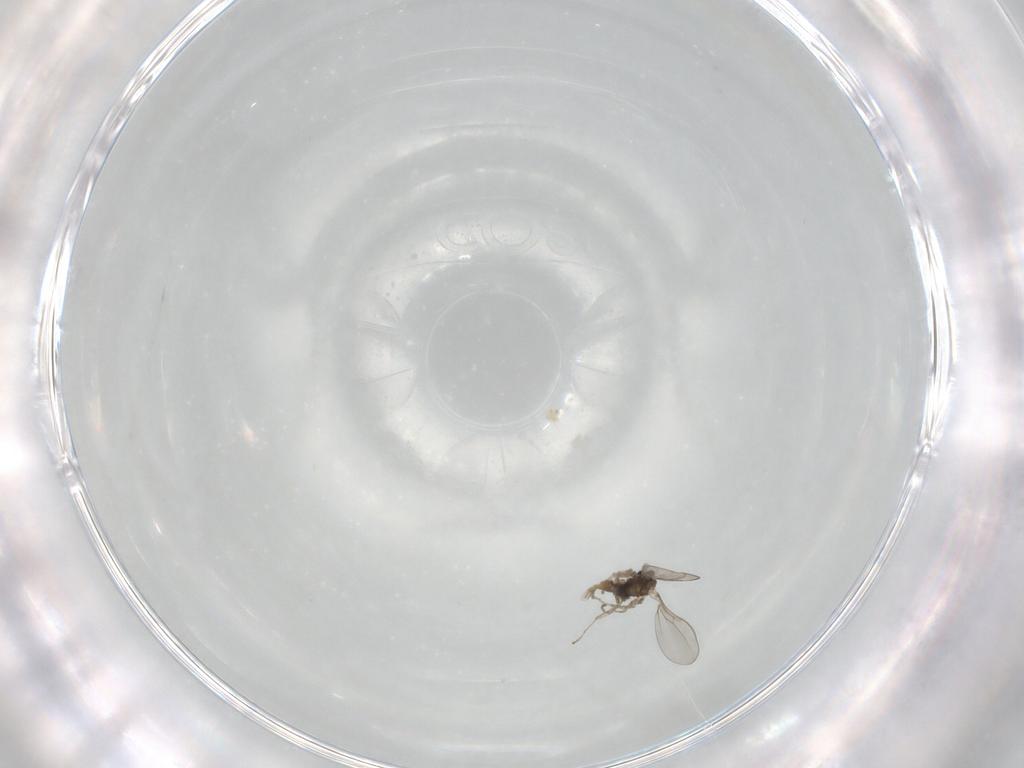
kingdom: Animalia
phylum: Arthropoda
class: Insecta
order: Diptera
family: Cecidomyiidae
